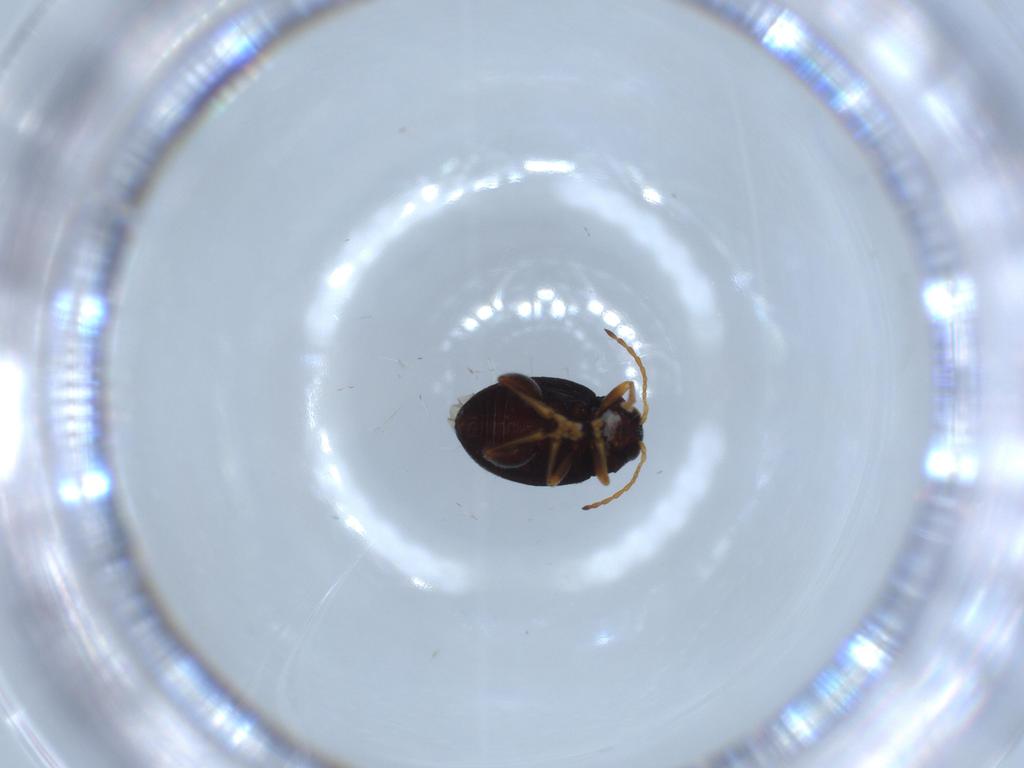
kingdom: Animalia
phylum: Arthropoda
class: Insecta
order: Coleoptera
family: Chrysomelidae
